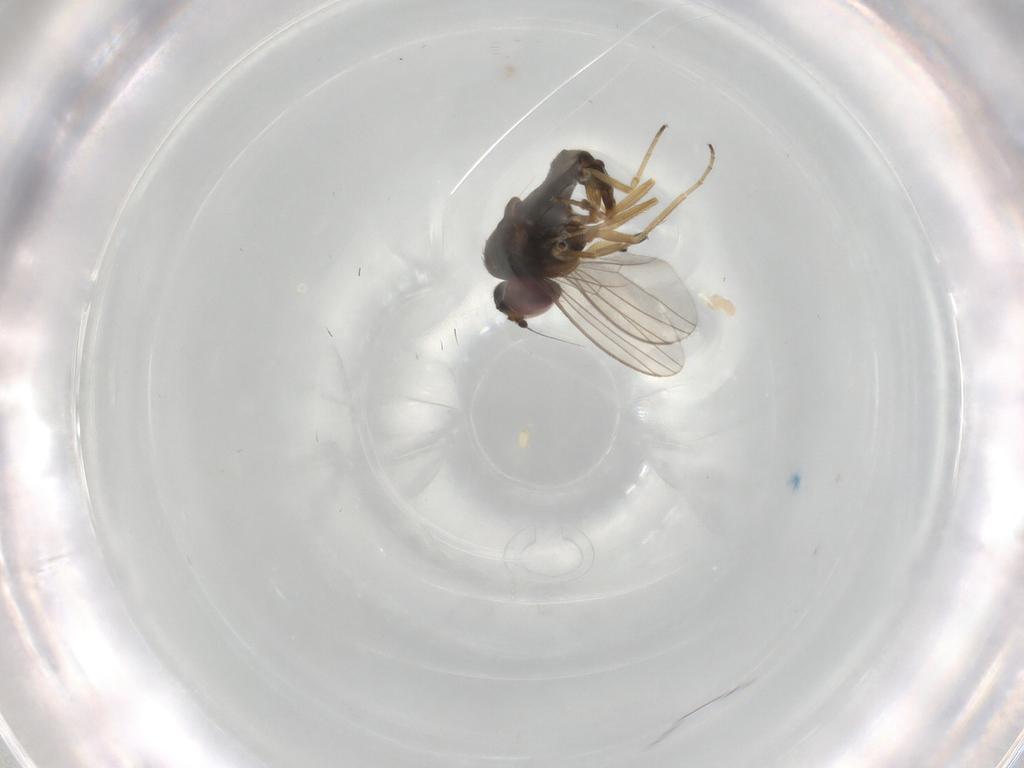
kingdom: Animalia
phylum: Arthropoda
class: Insecta
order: Diptera
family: Dolichopodidae
